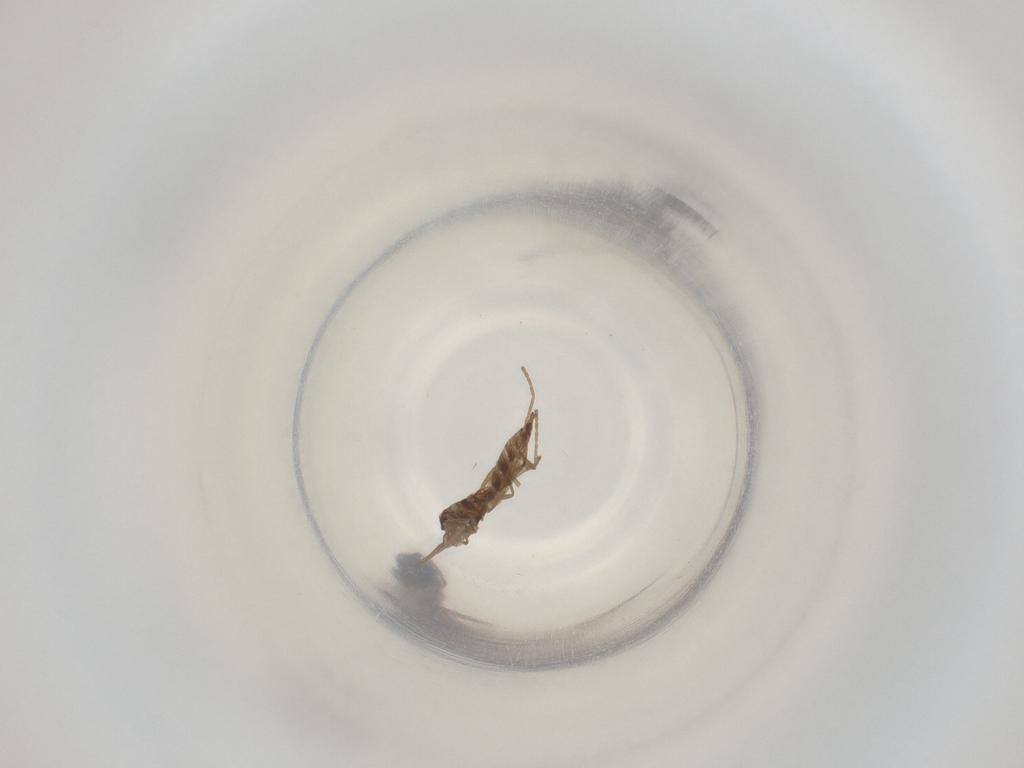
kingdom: Animalia
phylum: Arthropoda
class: Insecta
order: Diptera
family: Cecidomyiidae
